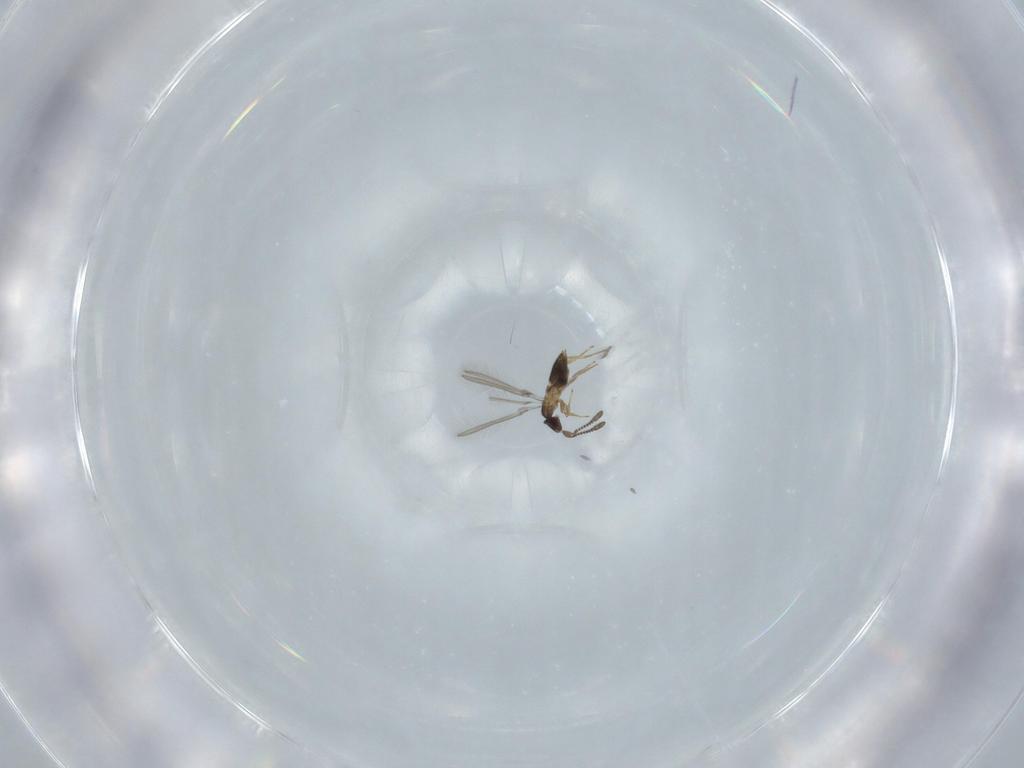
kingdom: Animalia
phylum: Arthropoda
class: Insecta
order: Hymenoptera
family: Mymaridae
